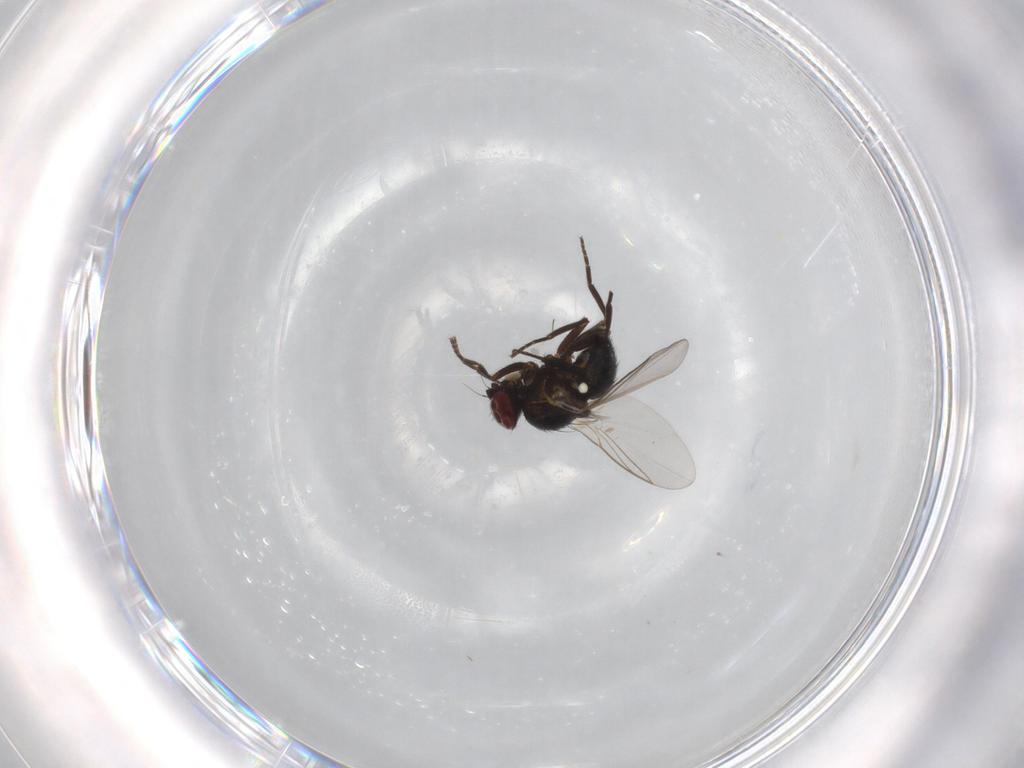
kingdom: Animalia
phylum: Arthropoda
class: Insecta
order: Diptera
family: Agromyzidae
